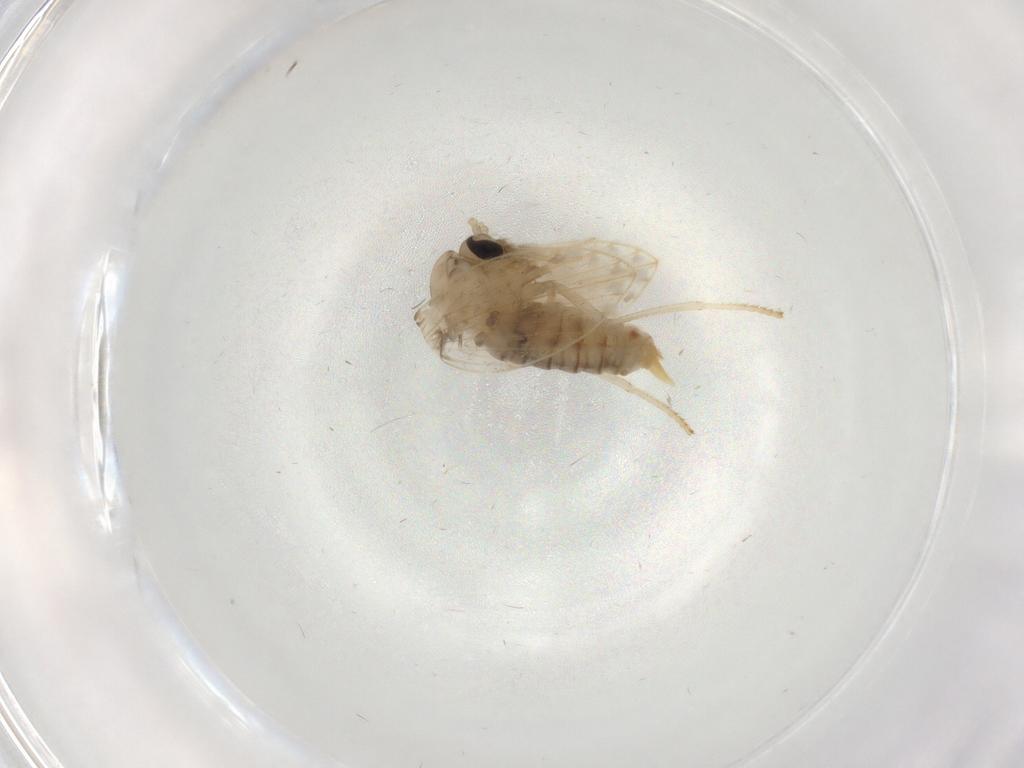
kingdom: Animalia
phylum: Arthropoda
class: Insecta
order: Diptera
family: Psychodidae
